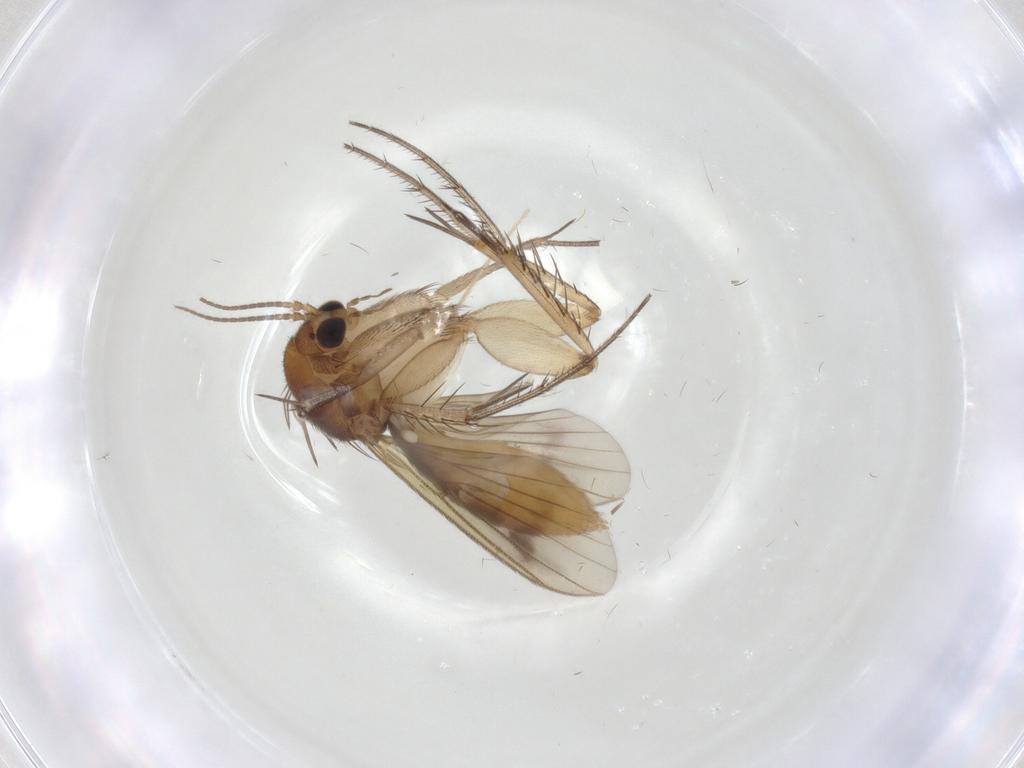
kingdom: Animalia
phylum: Arthropoda
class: Insecta
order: Diptera
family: Mycetophilidae
